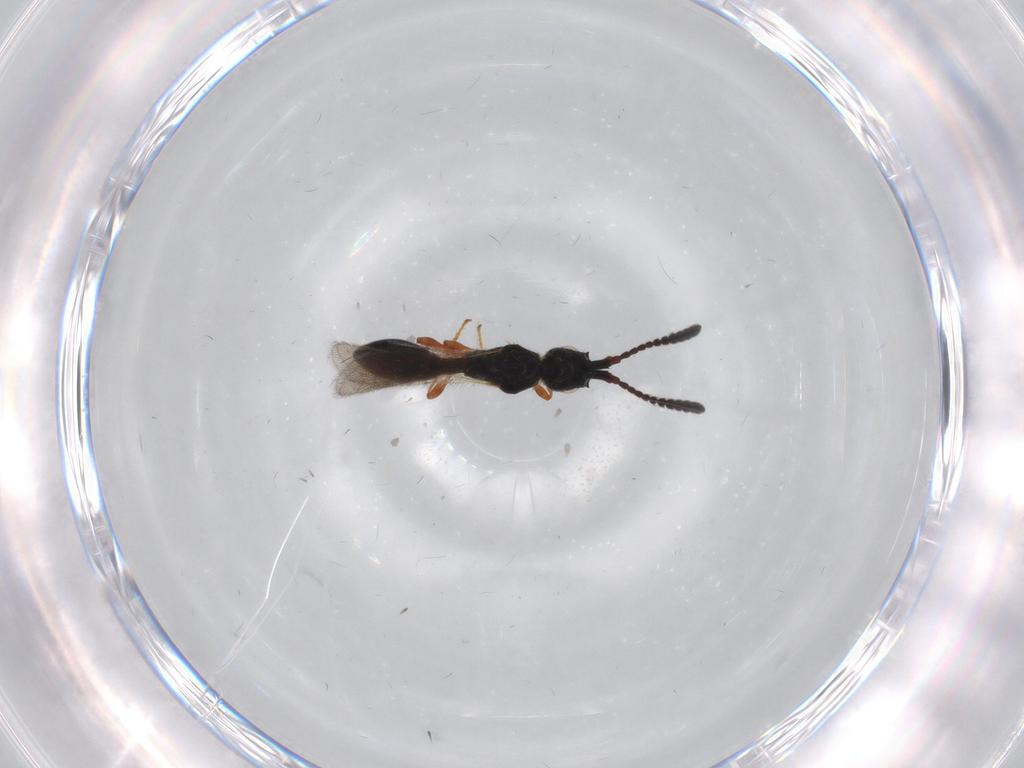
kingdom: Animalia
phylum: Arthropoda
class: Insecta
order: Hymenoptera
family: Diapriidae
